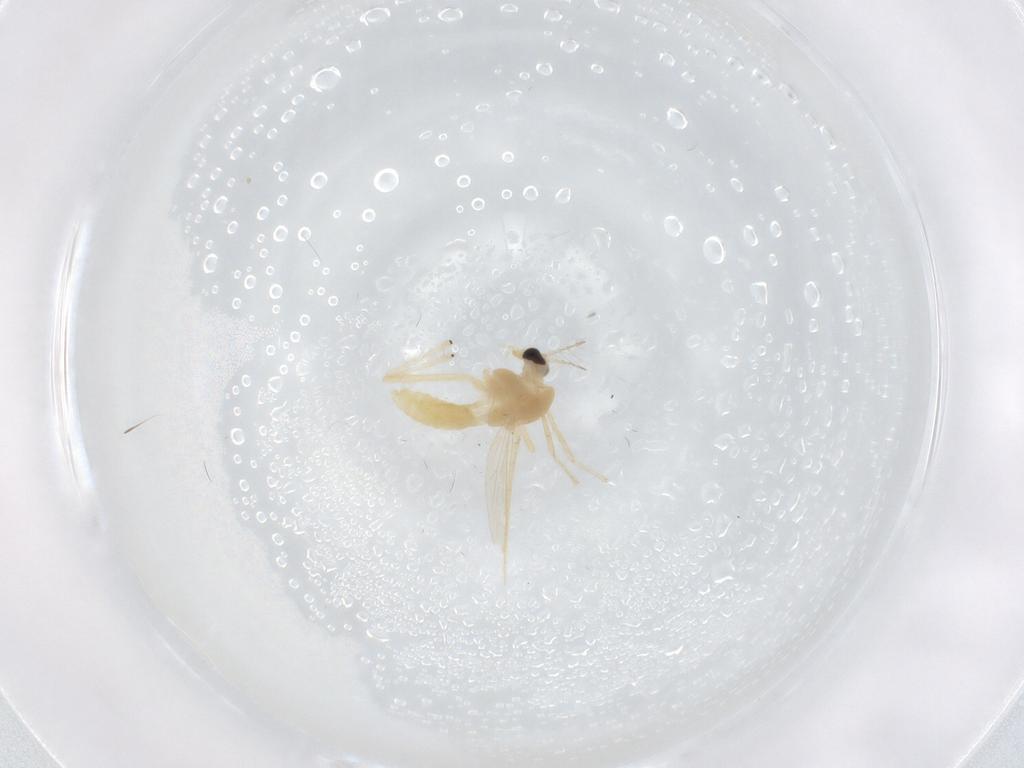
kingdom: Animalia
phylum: Arthropoda
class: Insecta
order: Diptera
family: Chironomidae
